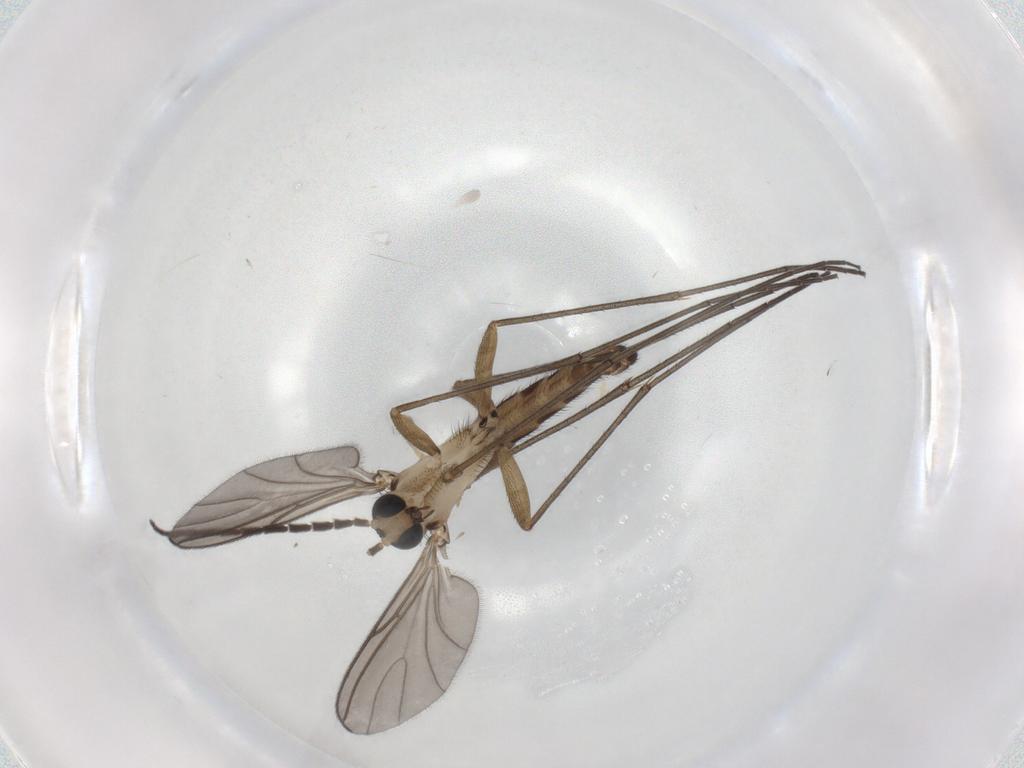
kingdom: Animalia
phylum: Arthropoda
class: Insecta
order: Diptera
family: Sciaridae
